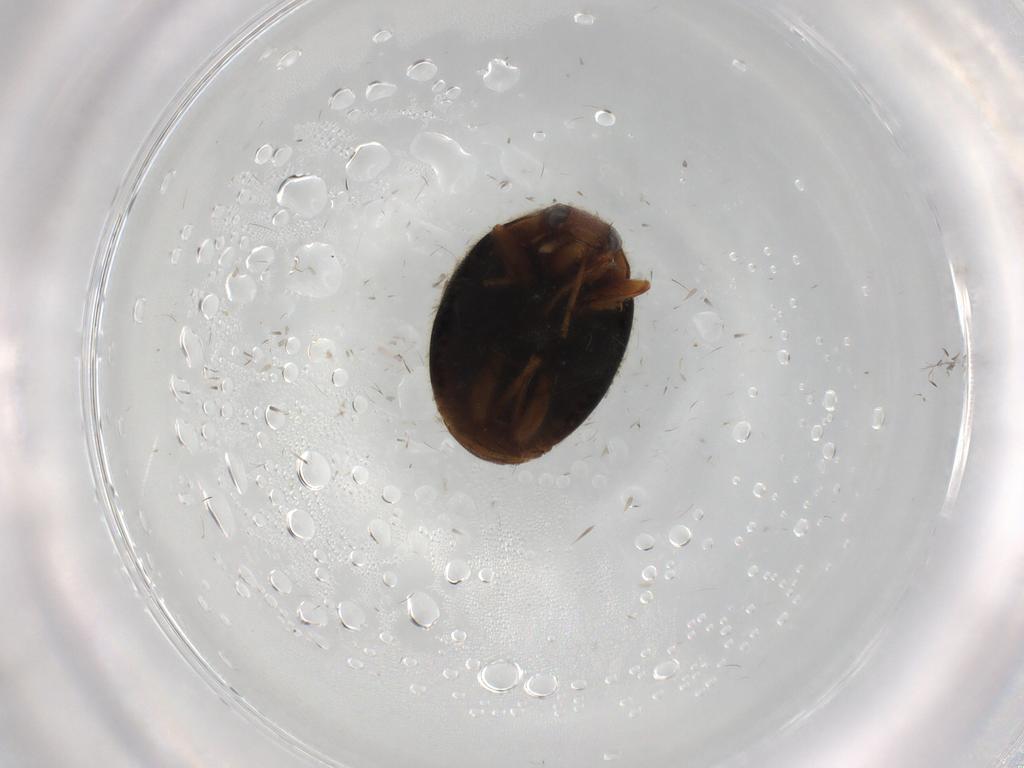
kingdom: Animalia
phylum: Arthropoda
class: Insecta
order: Coleoptera
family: Coccinellidae
